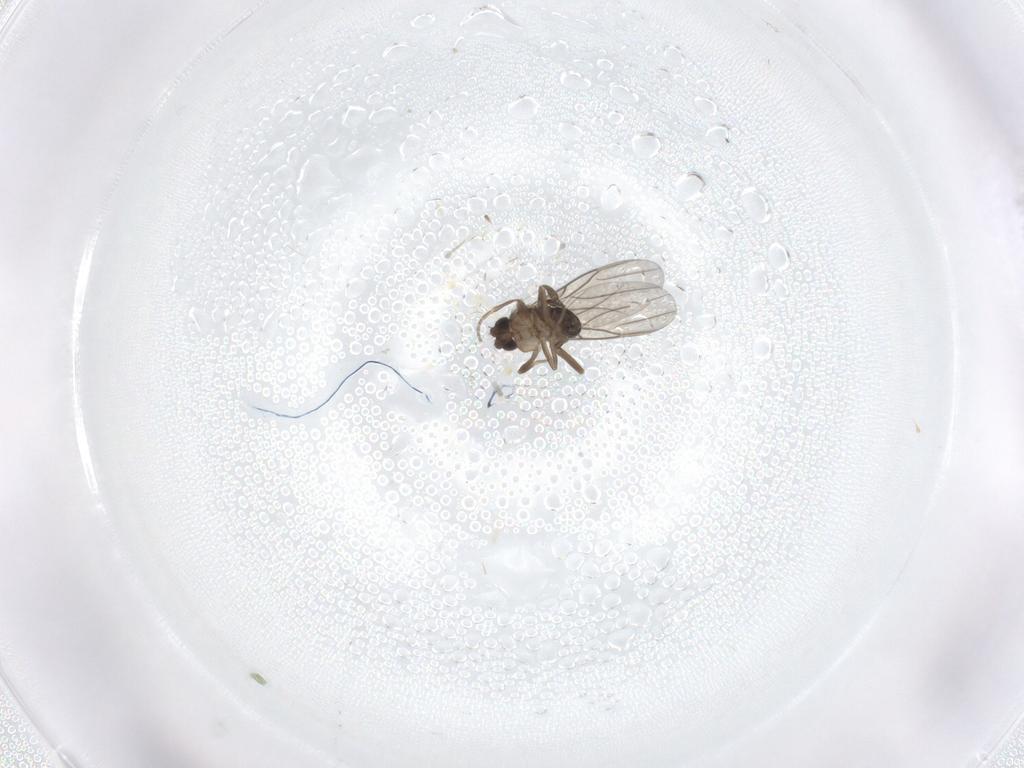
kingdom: Animalia
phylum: Arthropoda
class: Insecta
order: Diptera
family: Phoridae
